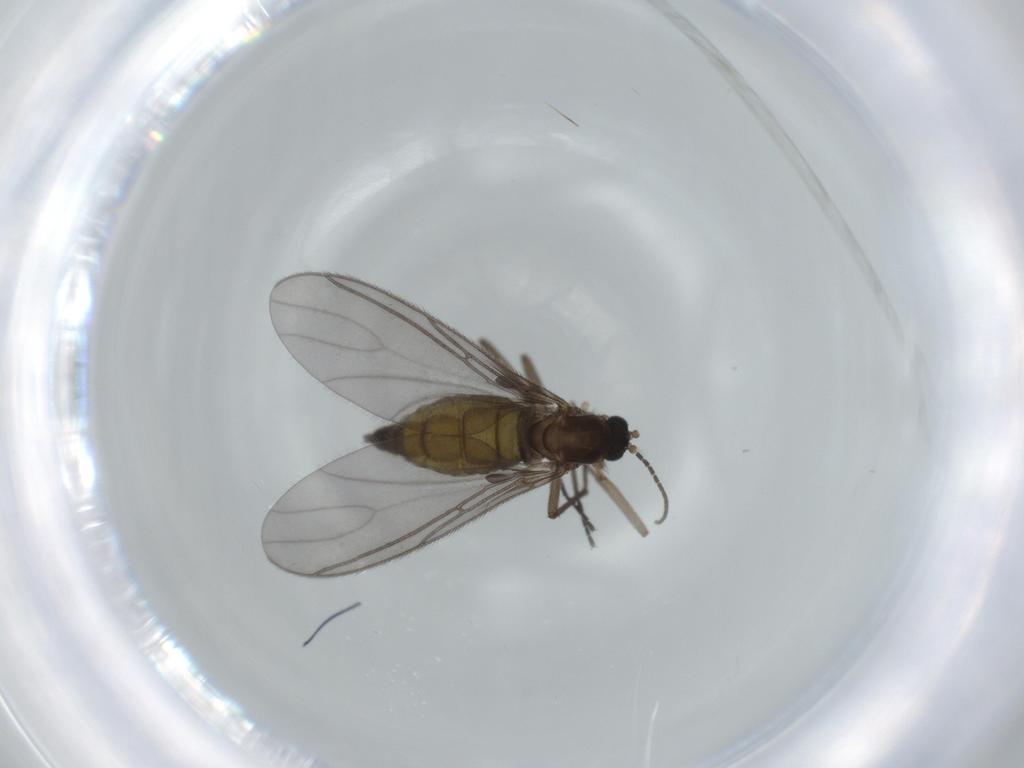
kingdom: Animalia
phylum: Arthropoda
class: Insecta
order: Diptera
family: Sciaridae
